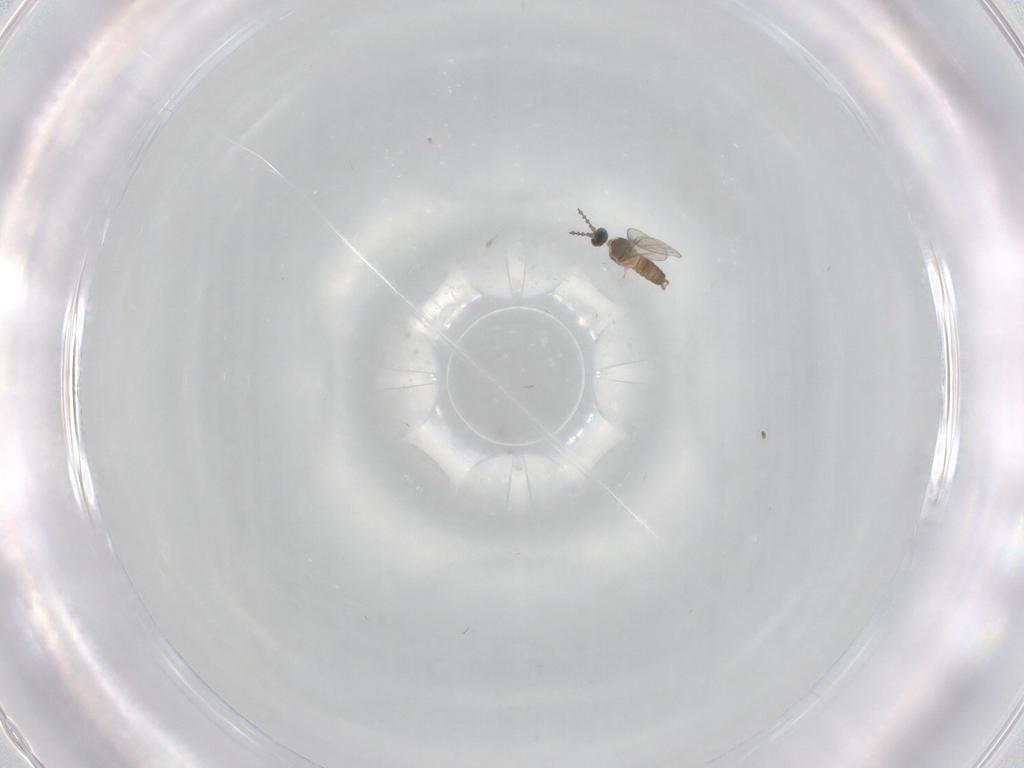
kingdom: Animalia
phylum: Arthropoda
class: Insecta
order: Diptera
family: Cecidomyiidae
